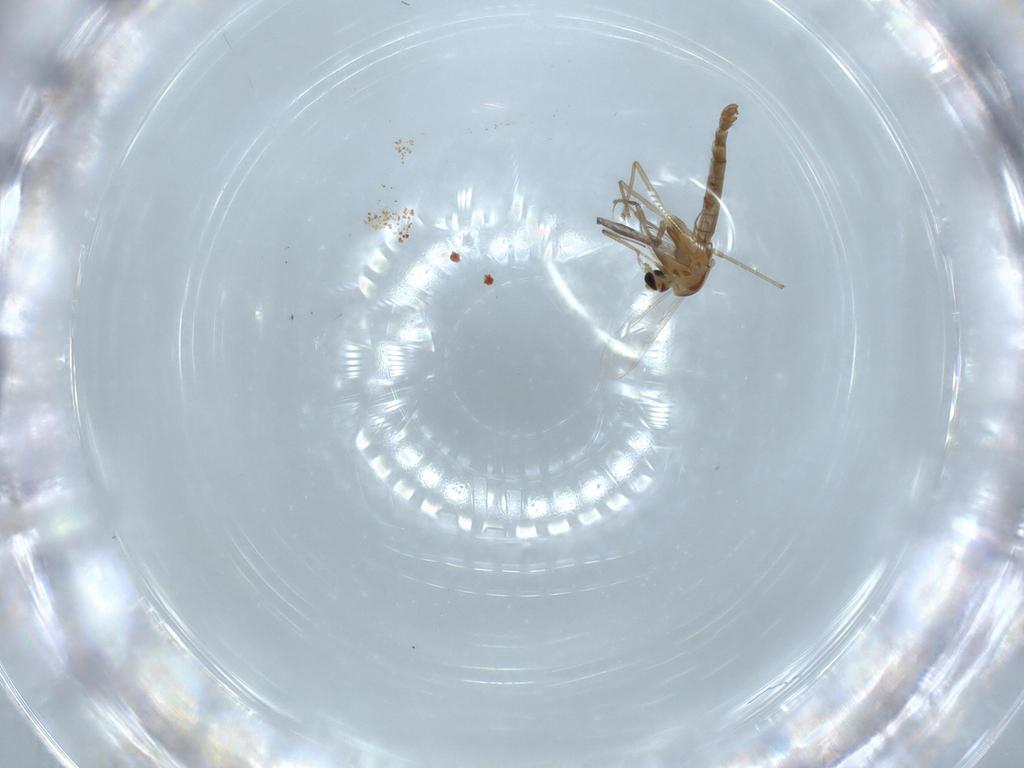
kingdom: Animalia
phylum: Arthropoda
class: Insecta
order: Diptera
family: Chironomidae
